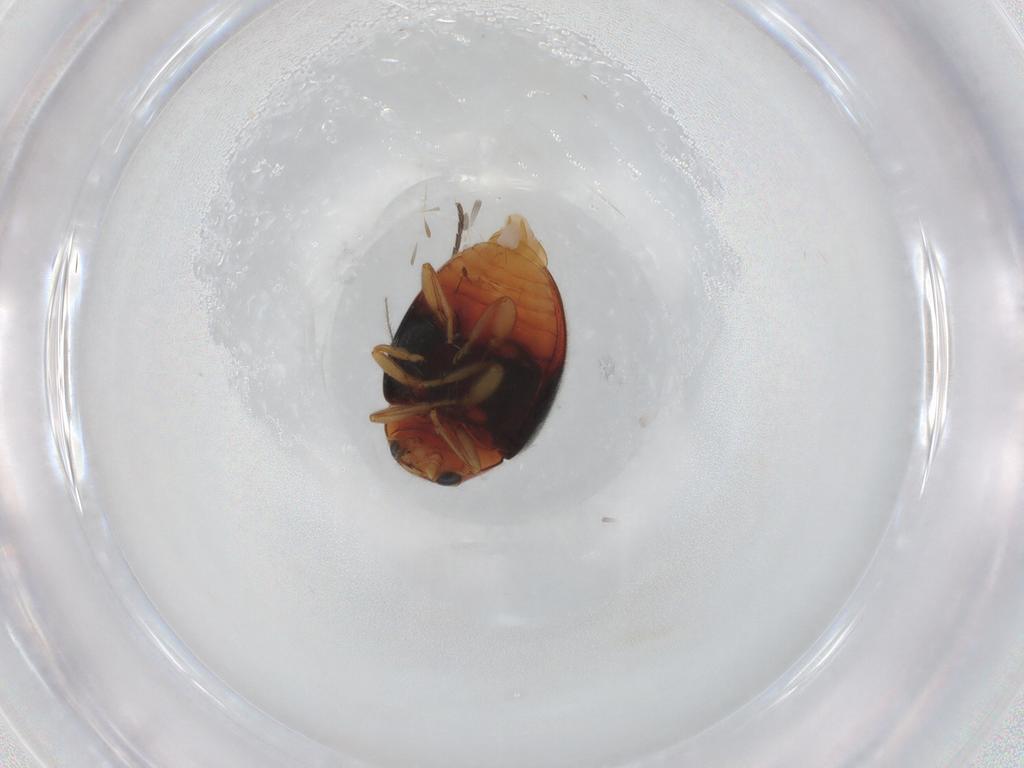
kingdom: Animalia
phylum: Arthropoda
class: Insecta
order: Coleoptera
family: Coccinellidae
